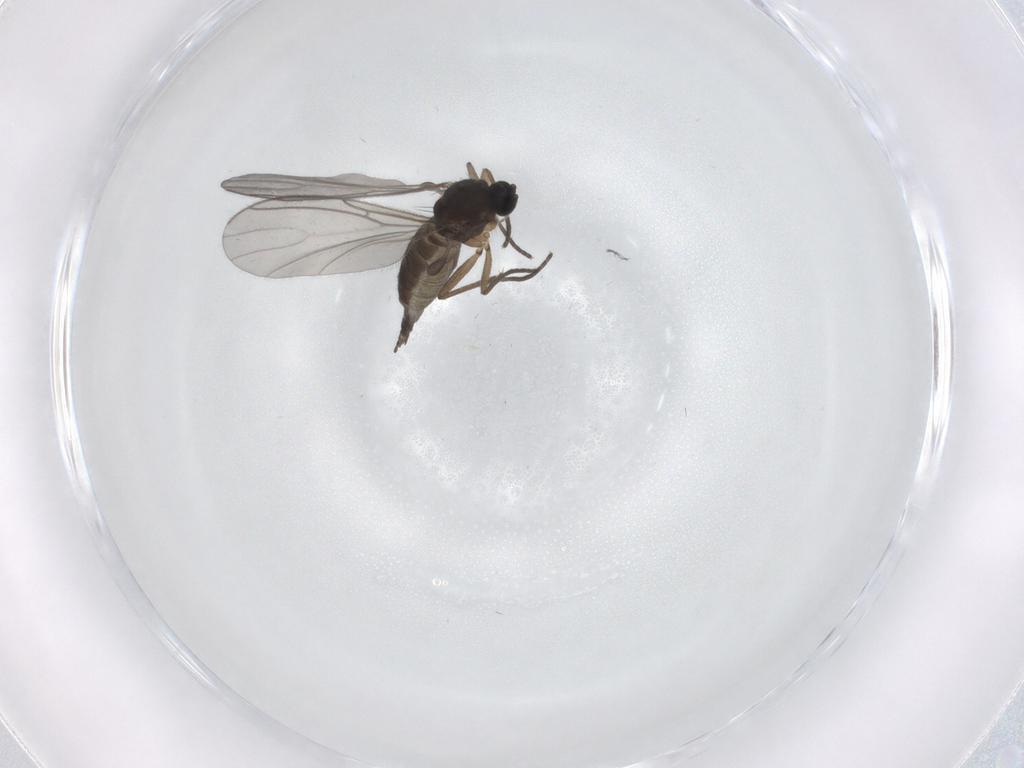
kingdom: Animalia
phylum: Arthropoda
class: Insecta
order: Diptera
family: Sciaridae
